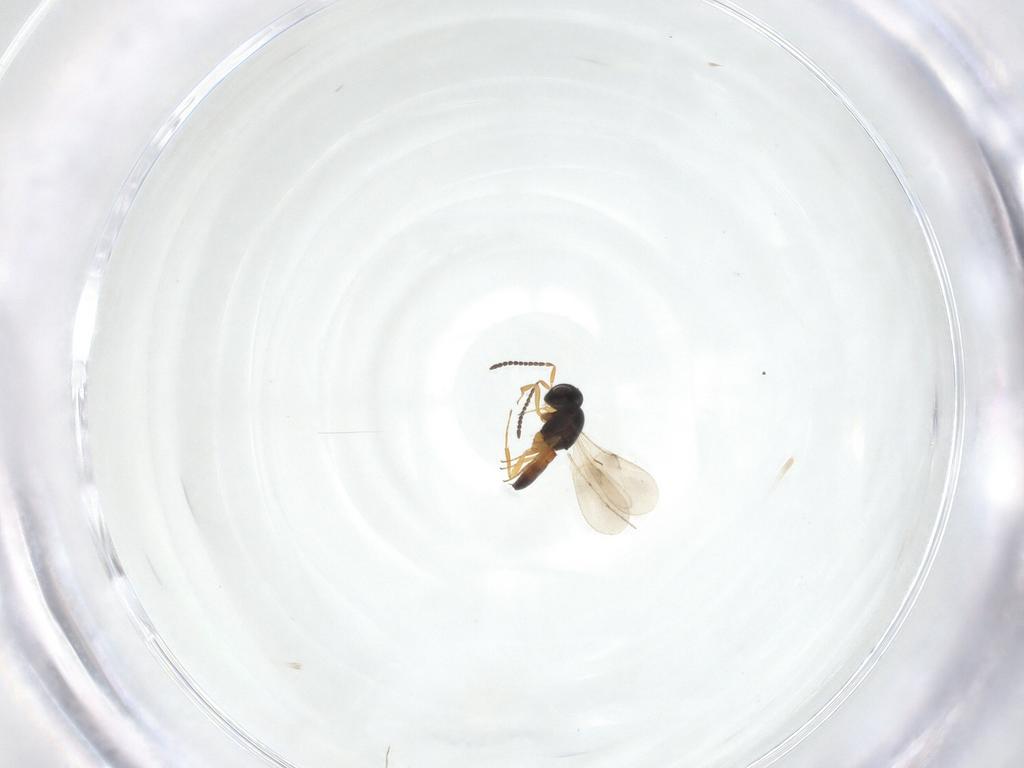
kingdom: Animalia
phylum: Arthropoda
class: Insecta
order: Hymenoptera
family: Scelionidae
